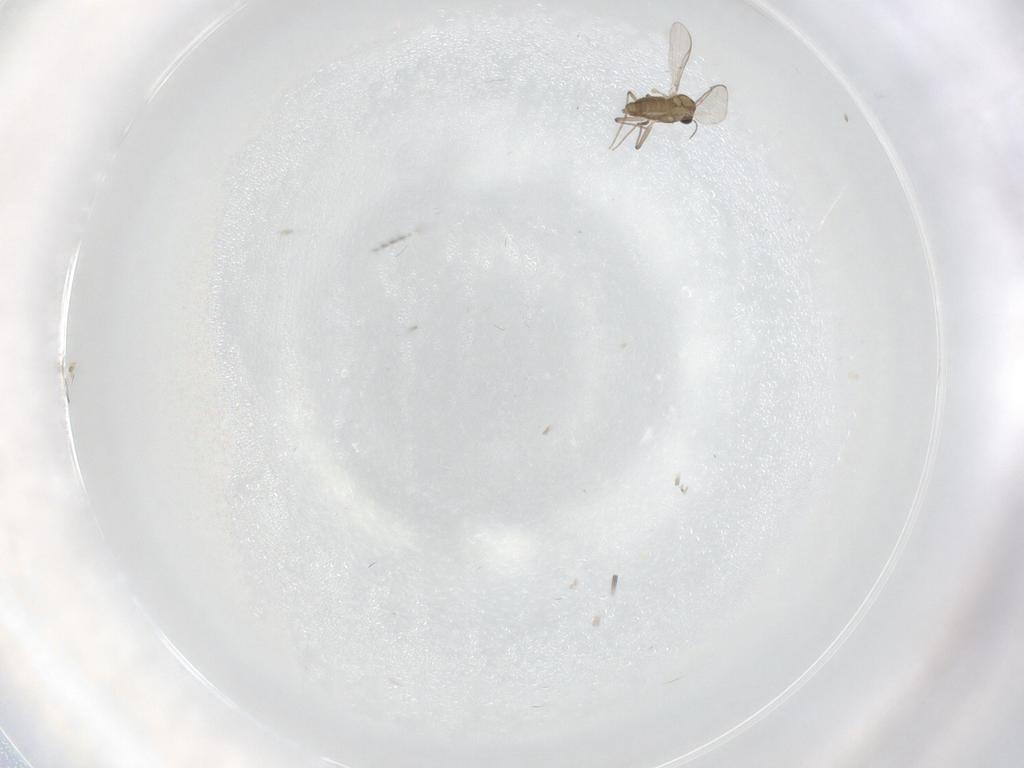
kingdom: Animalia
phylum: Arthropoda
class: Insecta
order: Diptera
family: Chironomidae
